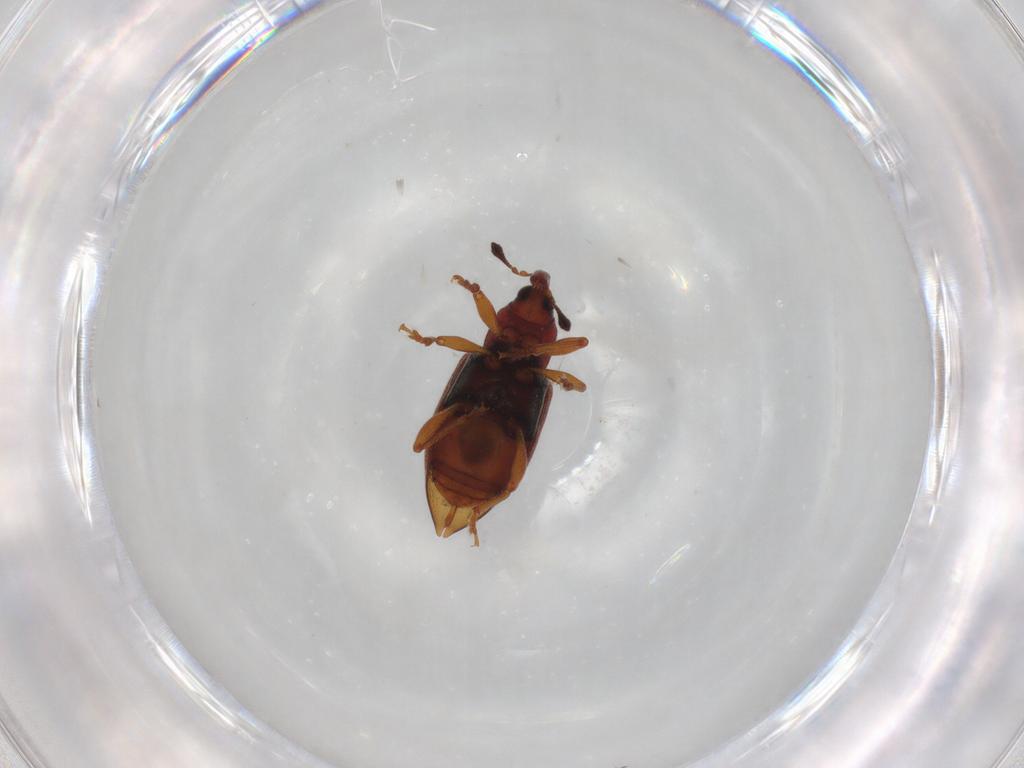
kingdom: Animalia
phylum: Arthropoda
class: Insecta
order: Coleoptera
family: Curculionidae
